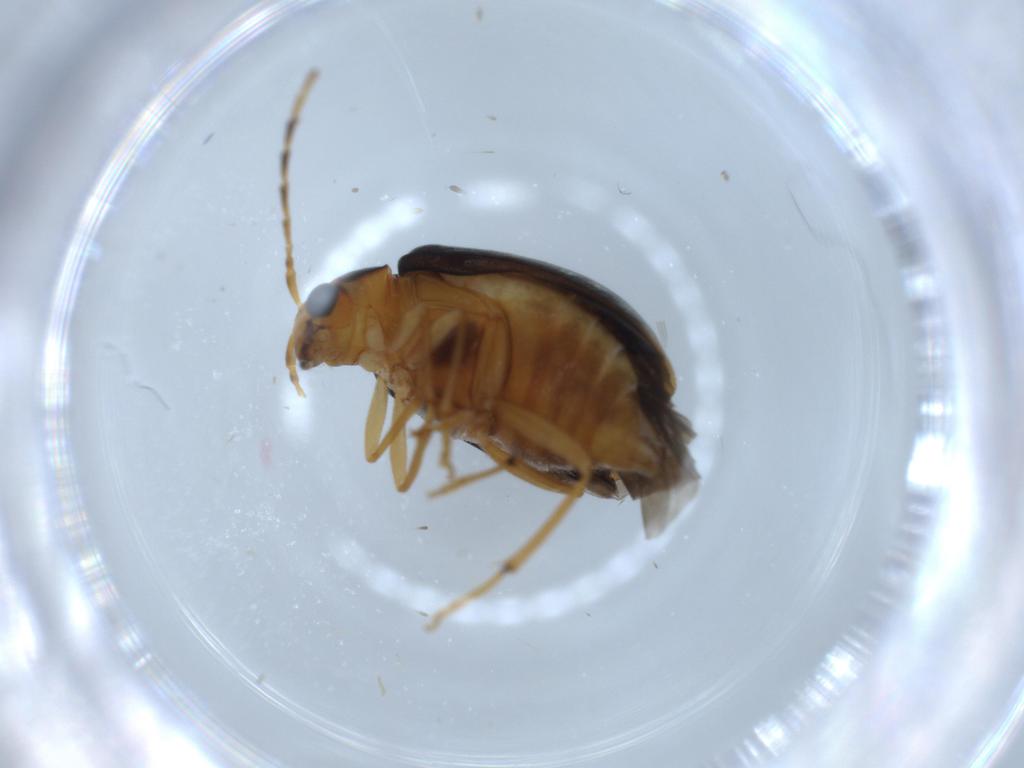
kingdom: Animalia
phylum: Arthropoda
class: Insecta
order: Coleoptera
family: Chrysomelidae
